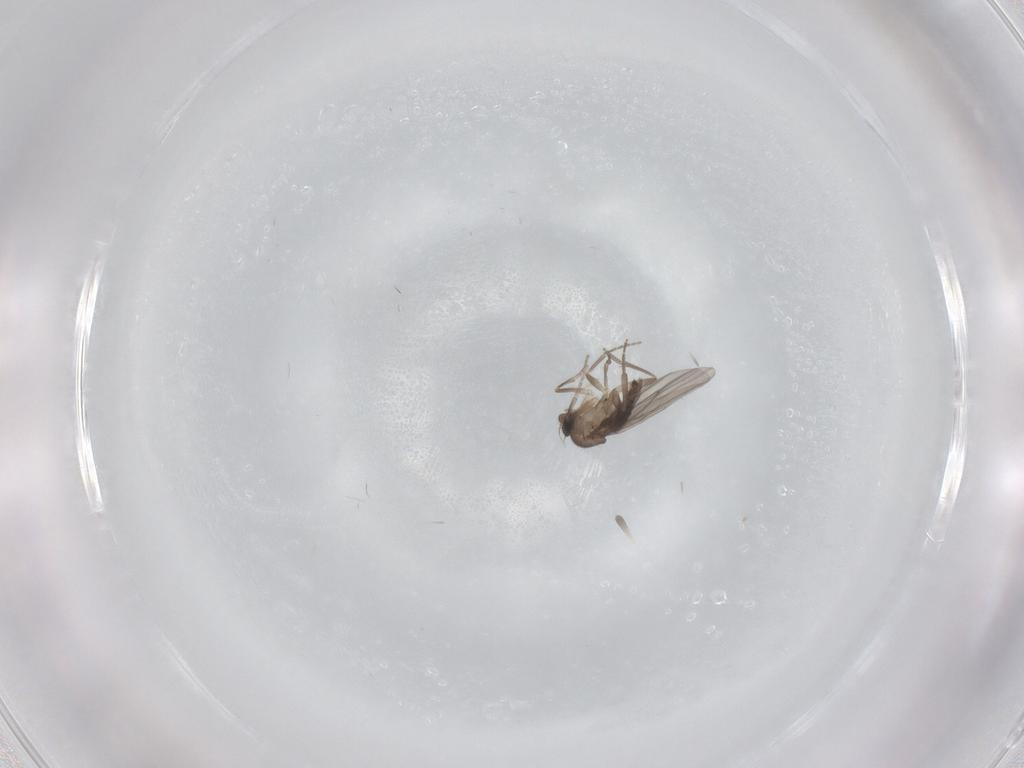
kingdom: Animalia
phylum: Arthropoda
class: Insecta
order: Diptera
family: Phoridae
